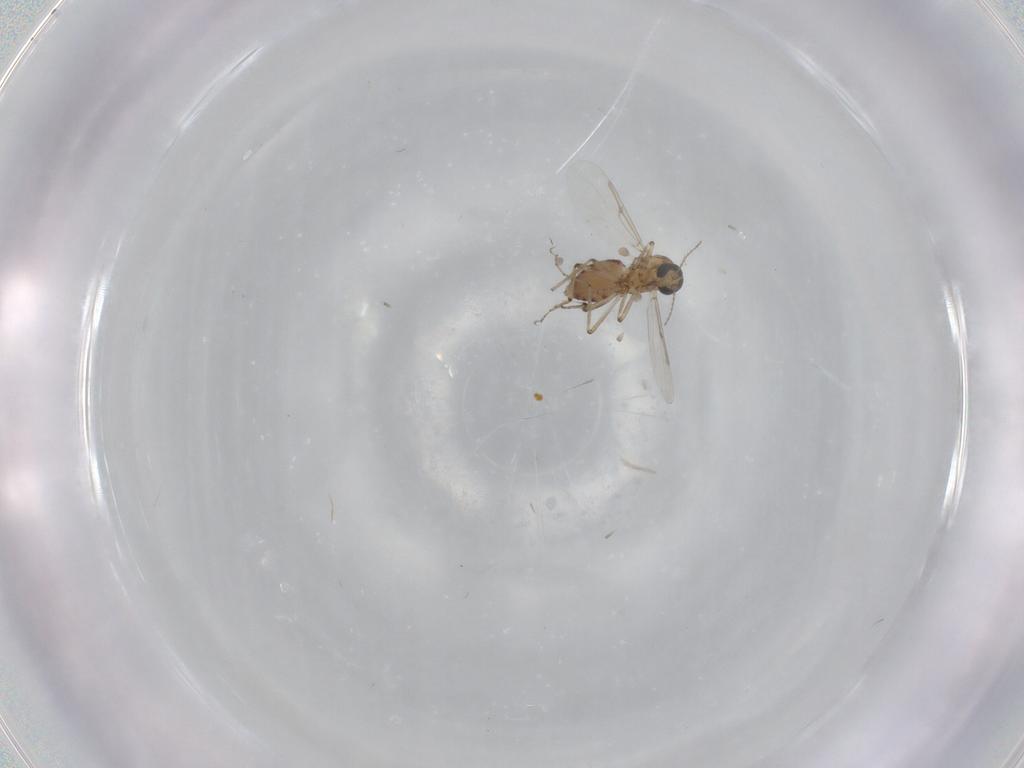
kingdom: Animalia
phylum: Arthropoda
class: Insecta
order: Diptera
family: Ceratopogonidae
